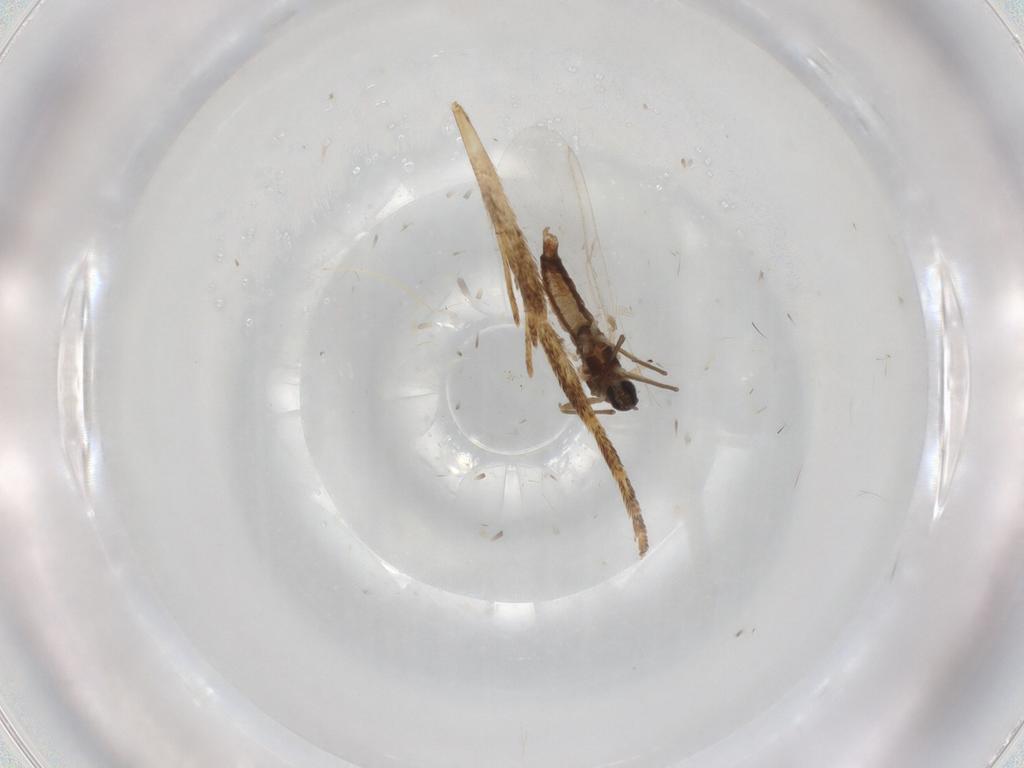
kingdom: Animalia
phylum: Arthropoda
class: Insecta
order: Diptera
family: Cecidomyiidae
